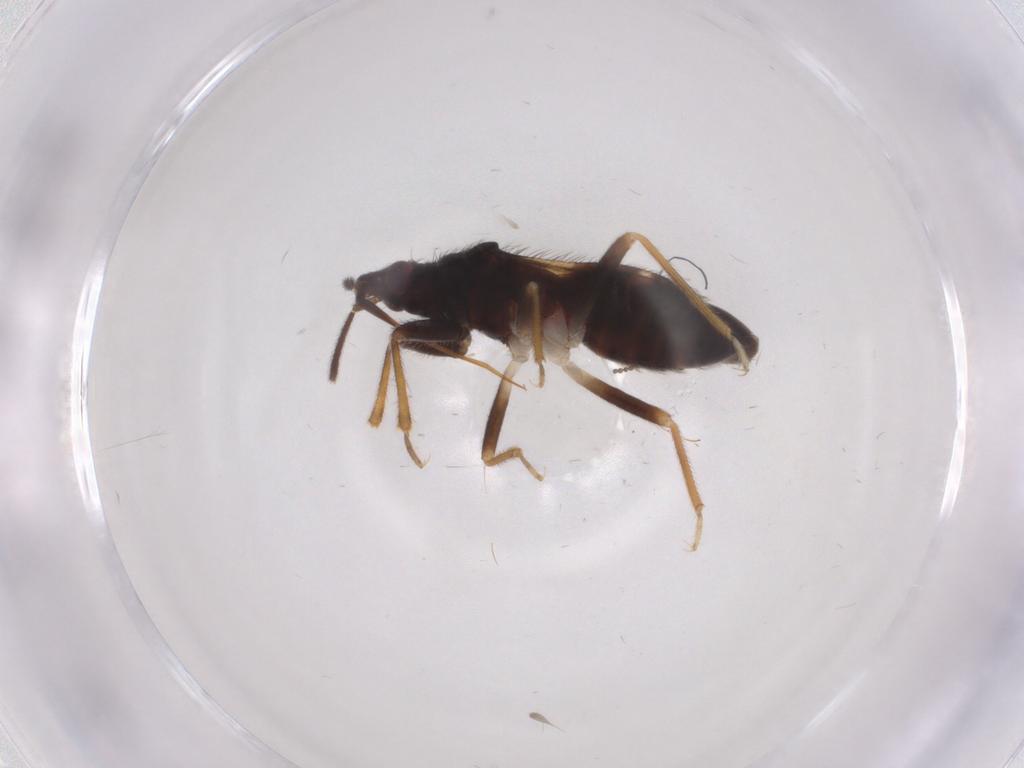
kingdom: Animalia
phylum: Arthropoda
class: Insecta
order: Hemiptera
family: Anthocoridae
